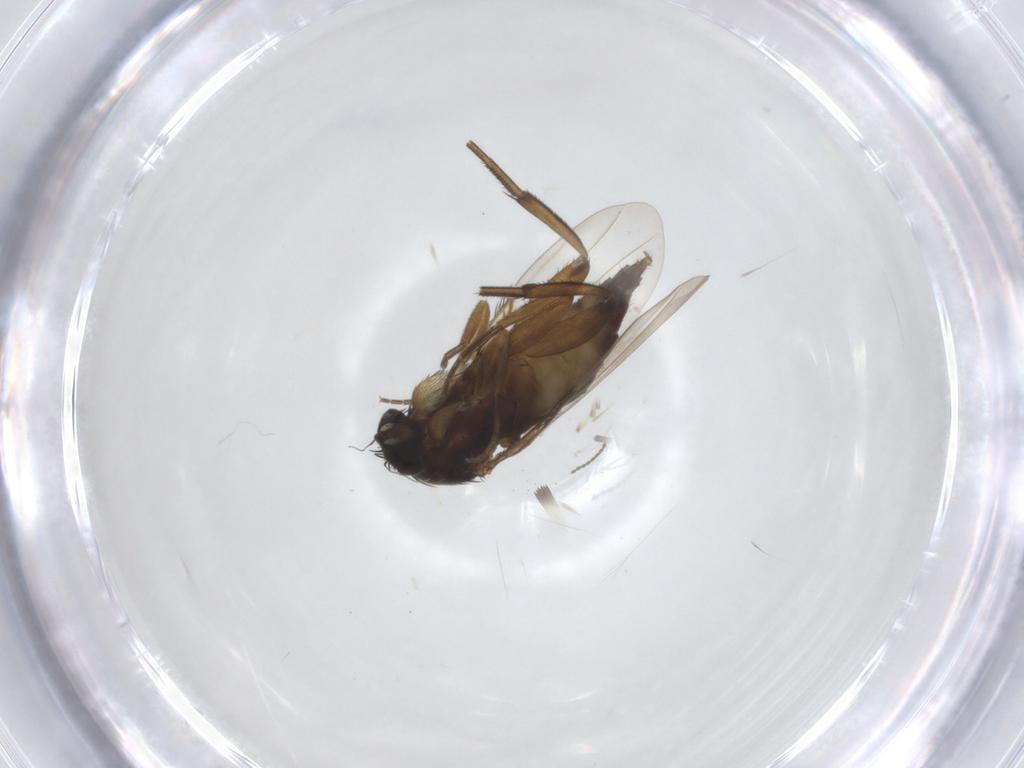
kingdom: Animalia
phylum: Arthropoda
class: Insecta
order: Diptera
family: Phoridae
